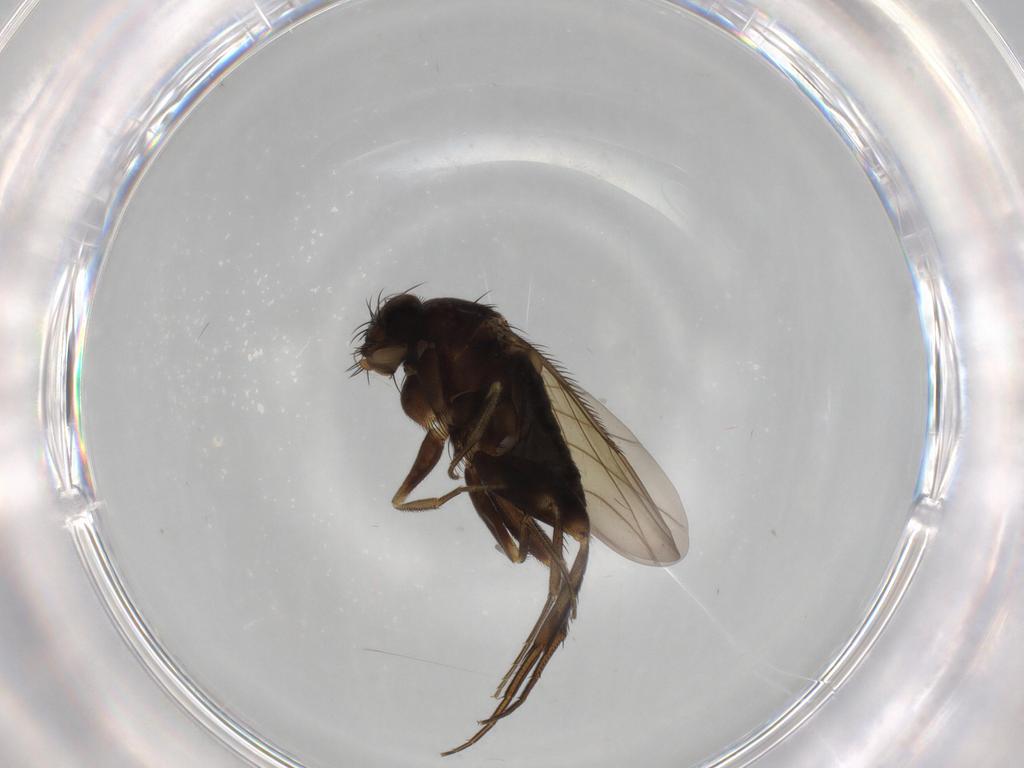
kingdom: Animalia
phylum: Arthropoda
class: Insecta
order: Diptera
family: Phoridae
